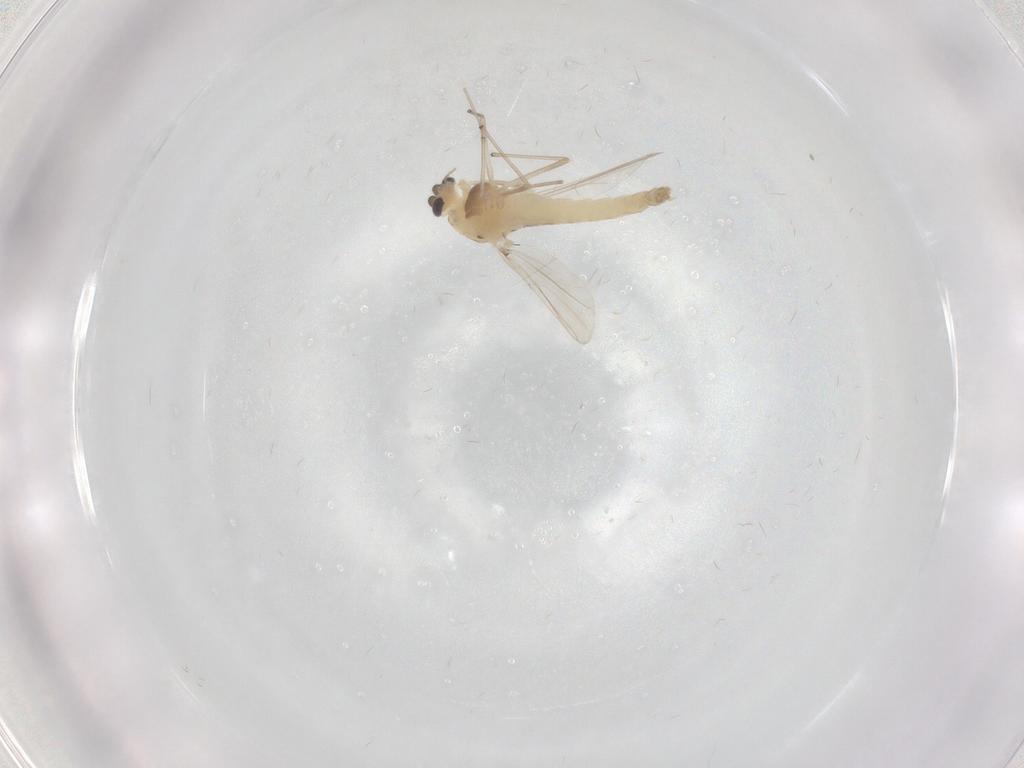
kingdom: Animalia
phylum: Arthropoda
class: Insecta
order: Diptera
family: Chironomidae
